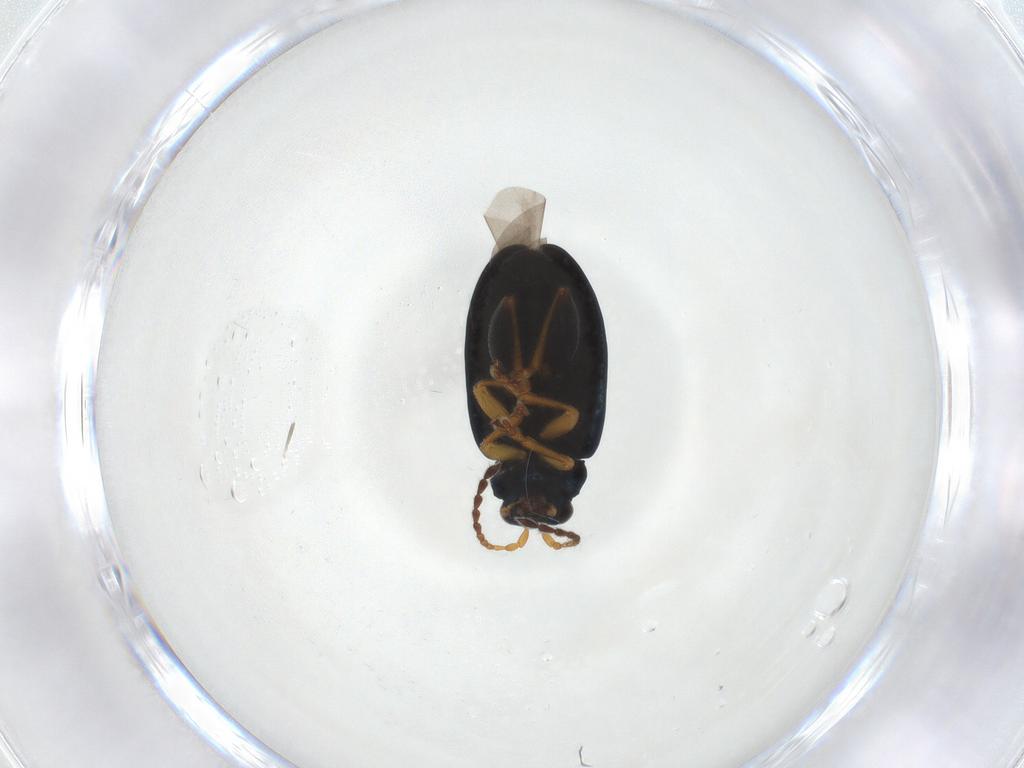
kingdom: Animalia
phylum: Arthropoda
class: Insecta
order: Coleoptera
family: Chrysomelidae
